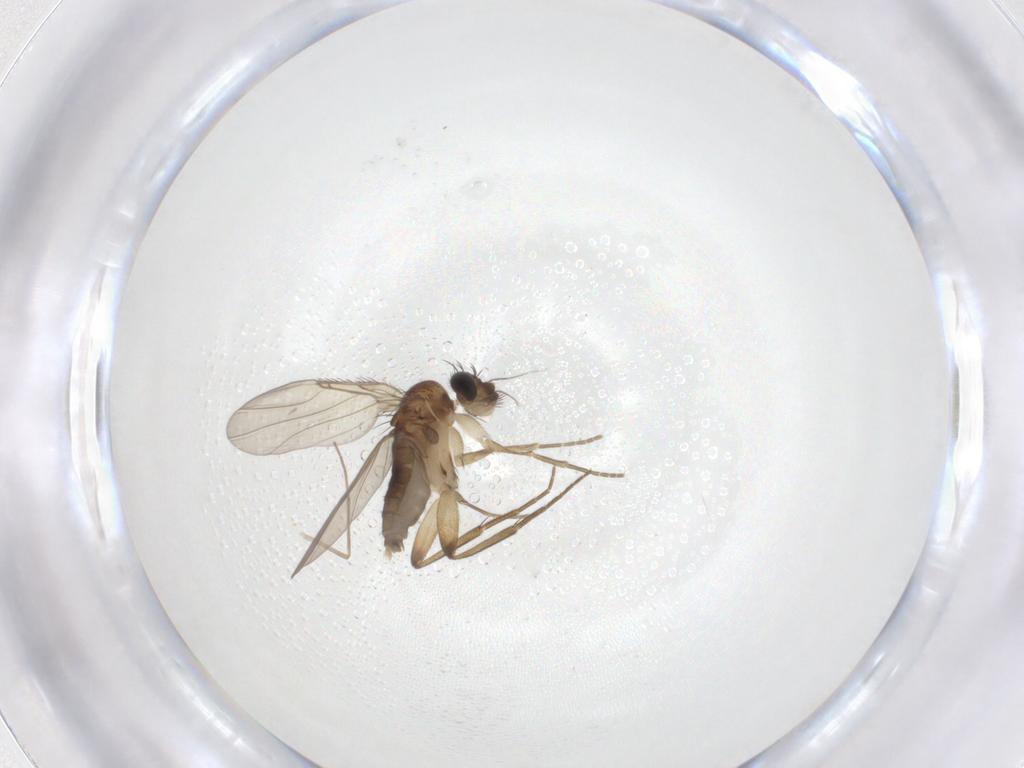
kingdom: Animalia
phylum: Arthropoda
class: Insecta
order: Diptera
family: Phoridae
